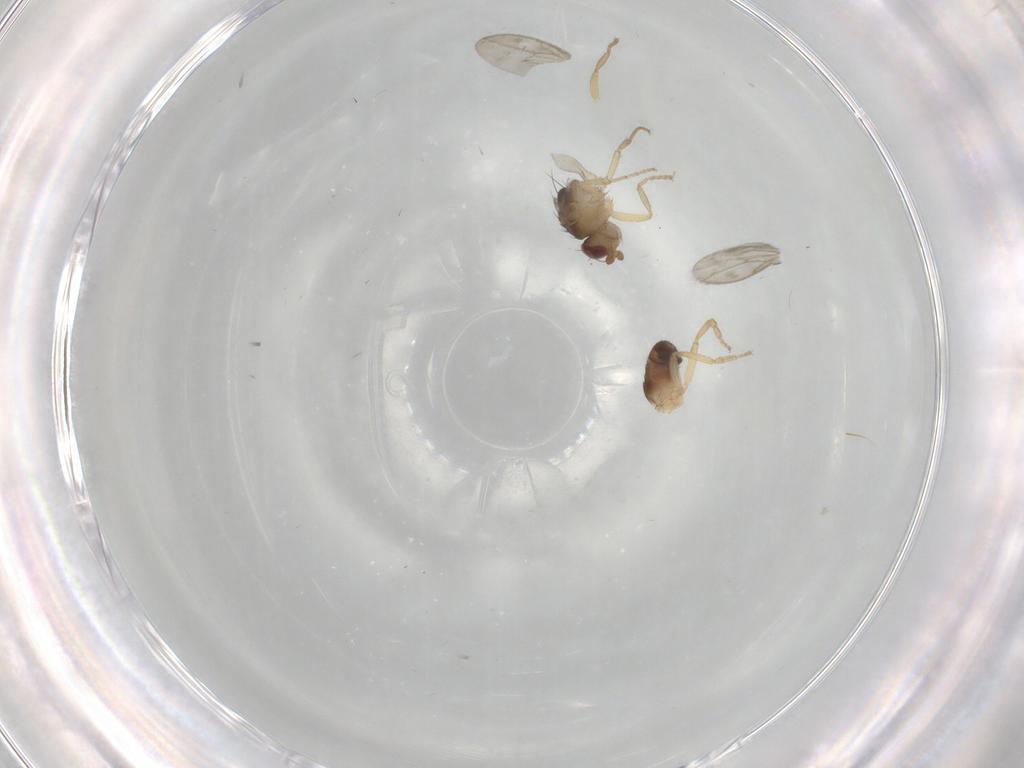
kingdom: Animalia
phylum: Arthropoda
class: Insecta
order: Diptera
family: Sphaeroceridae
